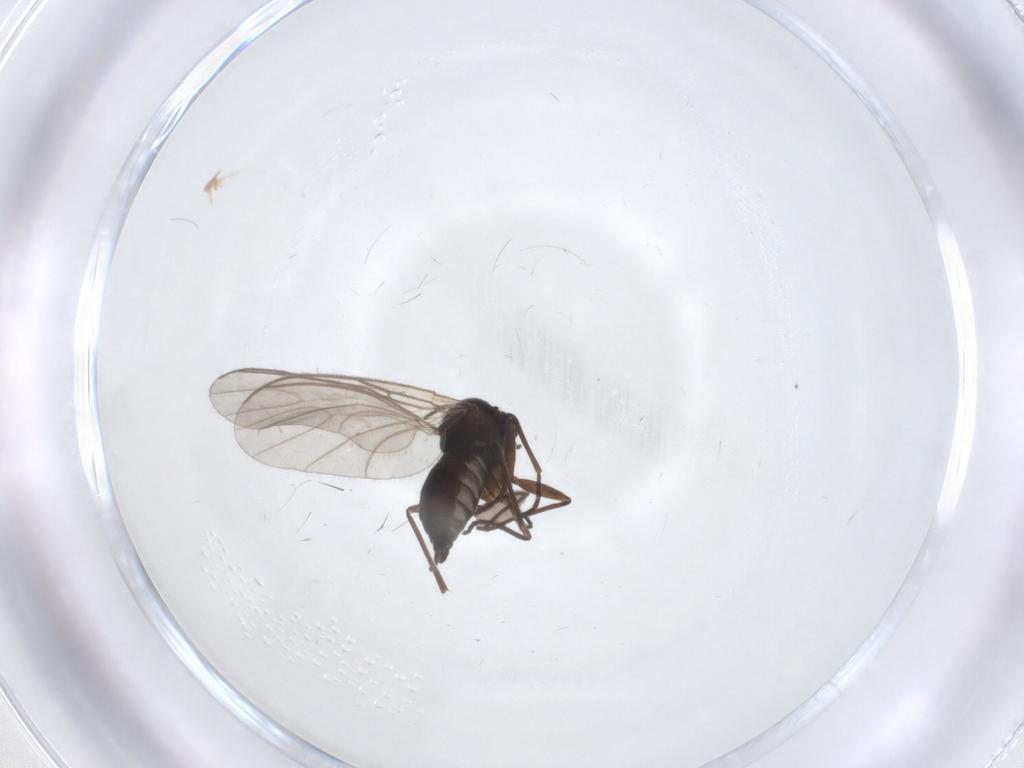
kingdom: Animalia
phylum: Arthropoda
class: Insecta
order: Diptera
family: Sciaridae
